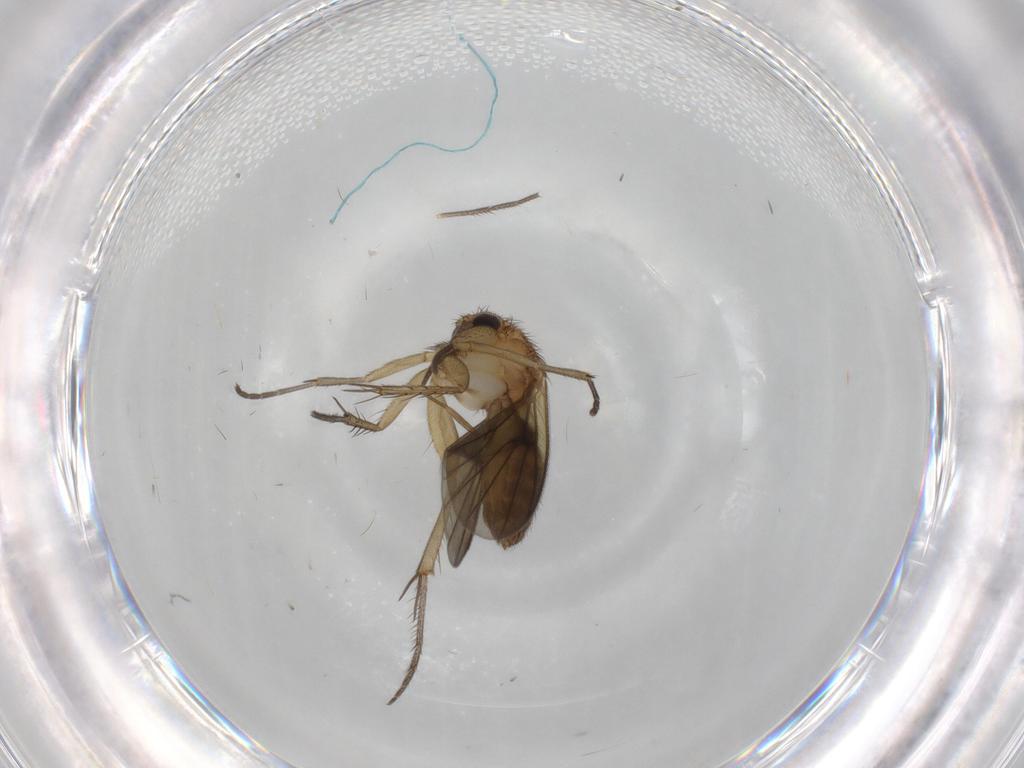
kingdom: Animalia
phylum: Arthropoda
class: Insecta
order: Diptera
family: Mycetophilidae
